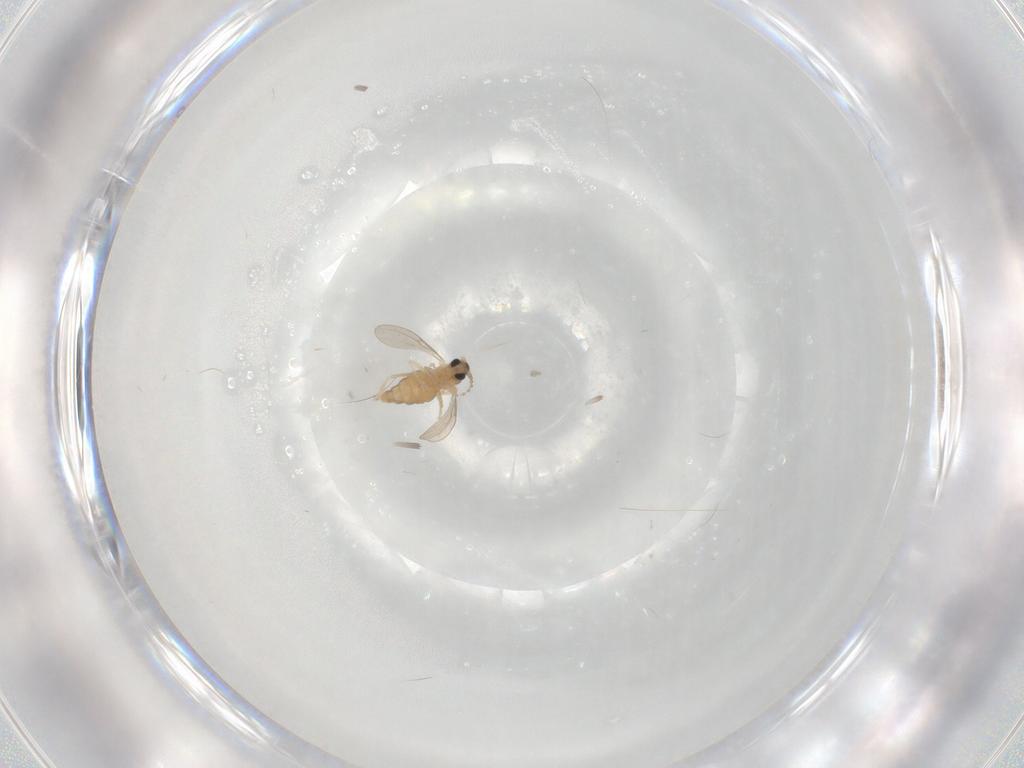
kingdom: Animalia
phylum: Arthropoda
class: Insecta
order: Diptera
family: Cecidomyiidae
